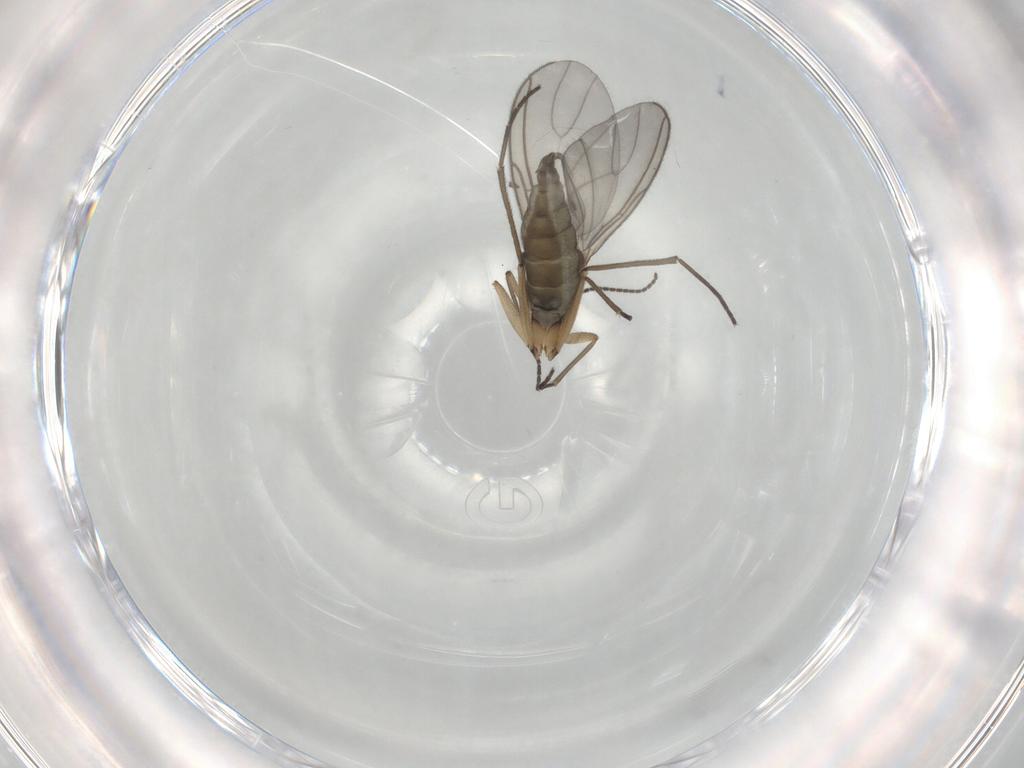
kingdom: Animalia
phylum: Arthropoda
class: Insecta
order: Diptera
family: Sciaridae
